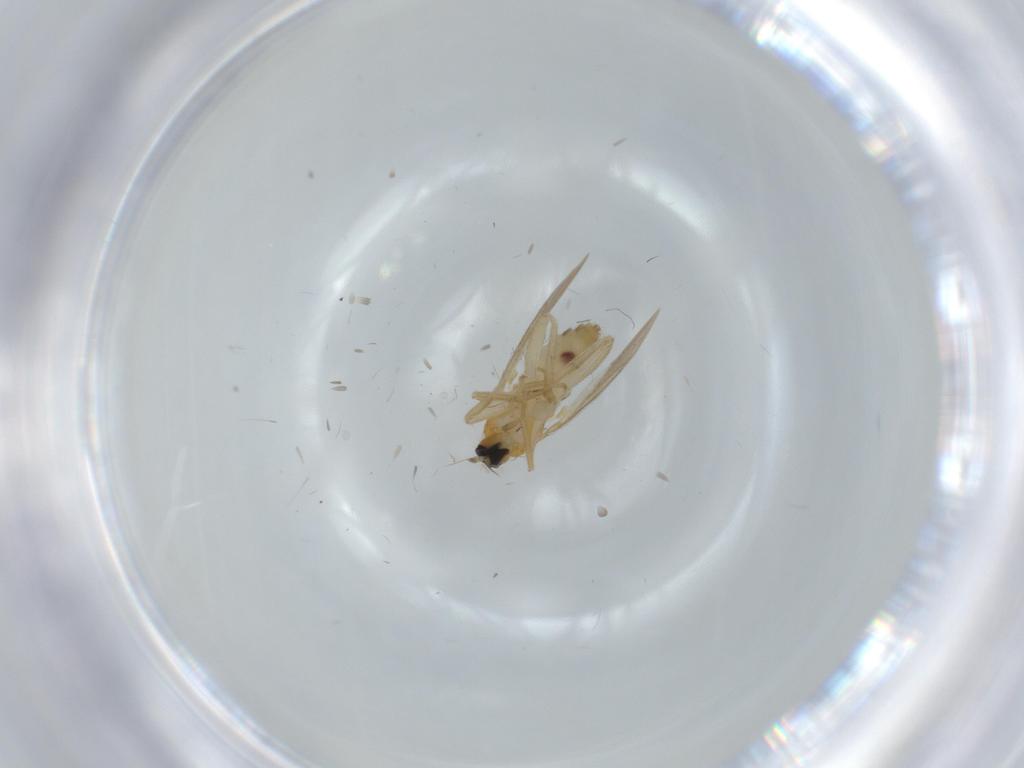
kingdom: Animalia
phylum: Arthropoda
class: Insecta
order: Diptera
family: Hybotidae
